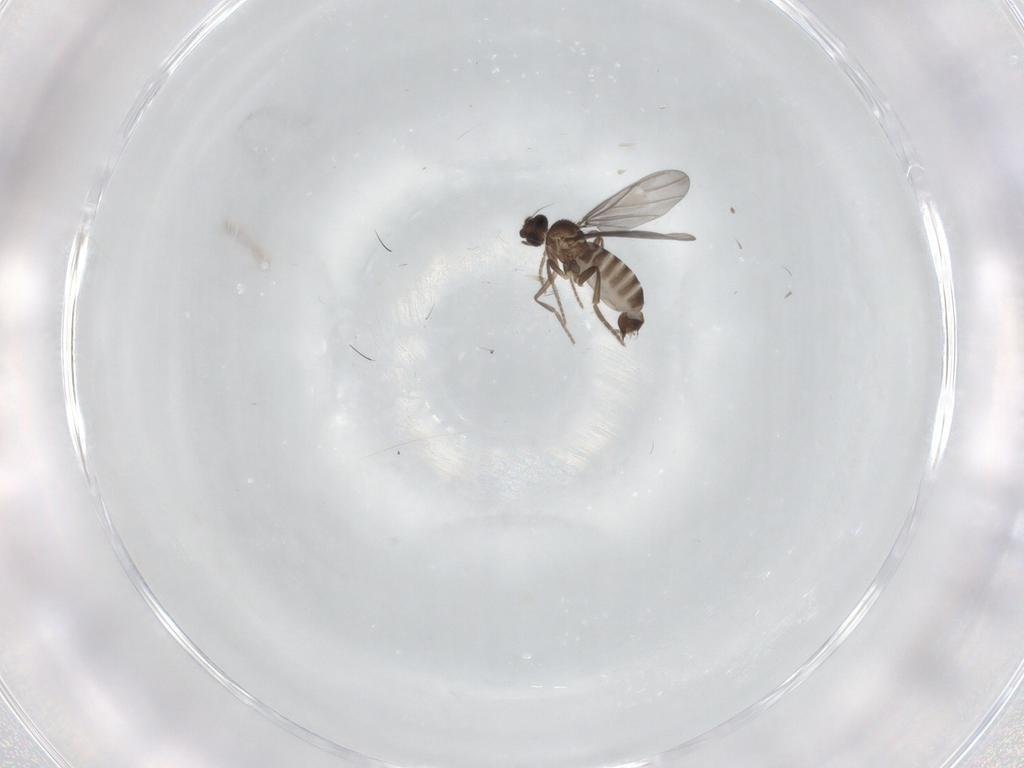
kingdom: Animalia
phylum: Arthropoda
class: Insecta
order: Diptera
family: Phoridae
